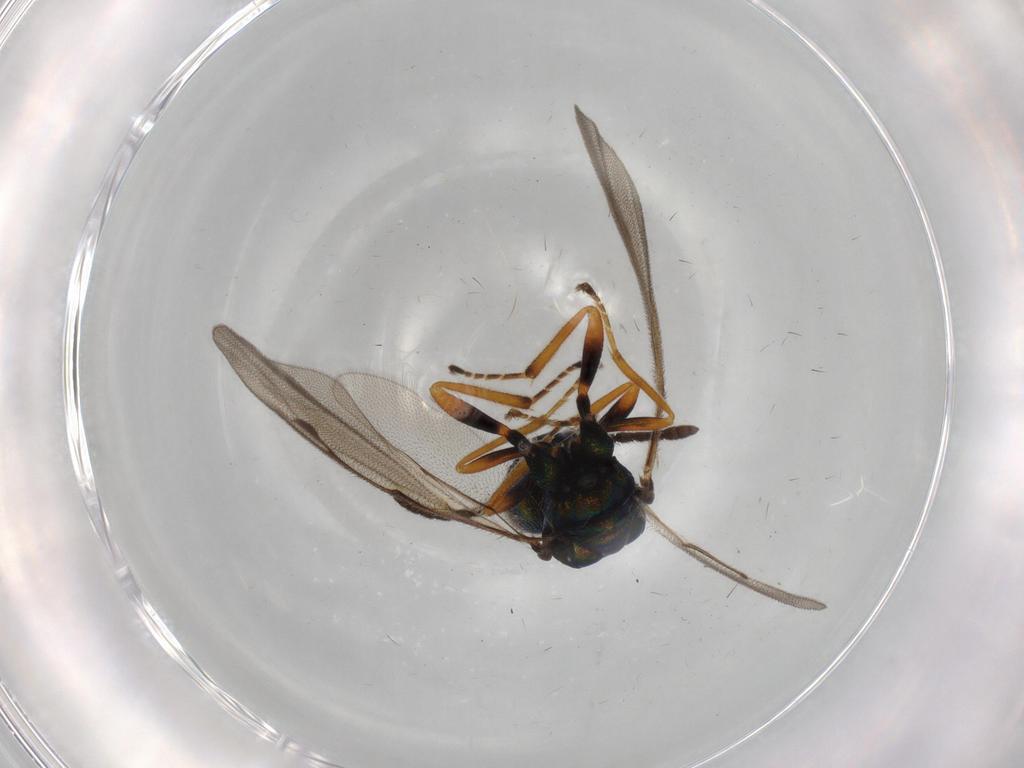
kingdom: Animalia
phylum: Arthropoda
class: Insecta
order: Hymenoptera
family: Pteromalidae
